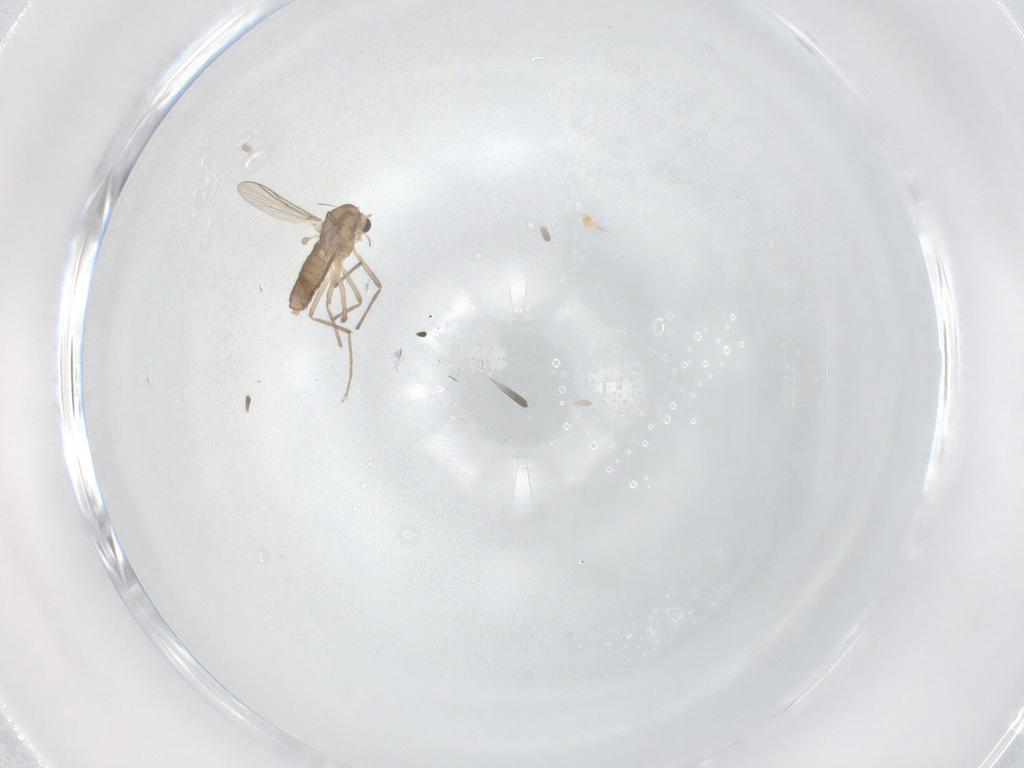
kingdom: Animalia
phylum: Arthropoda
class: Insecta
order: Diptera
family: Chironomidae
